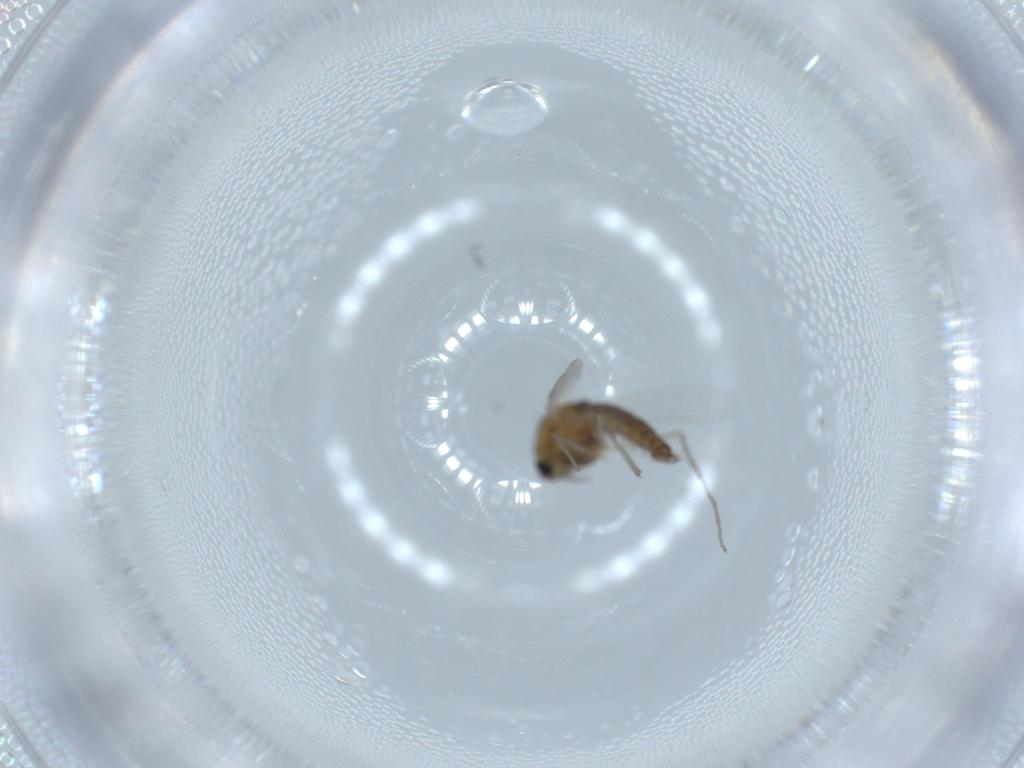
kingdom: Animalia
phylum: Arthropoda
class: Insecta
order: Diptera
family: Chironomidae
